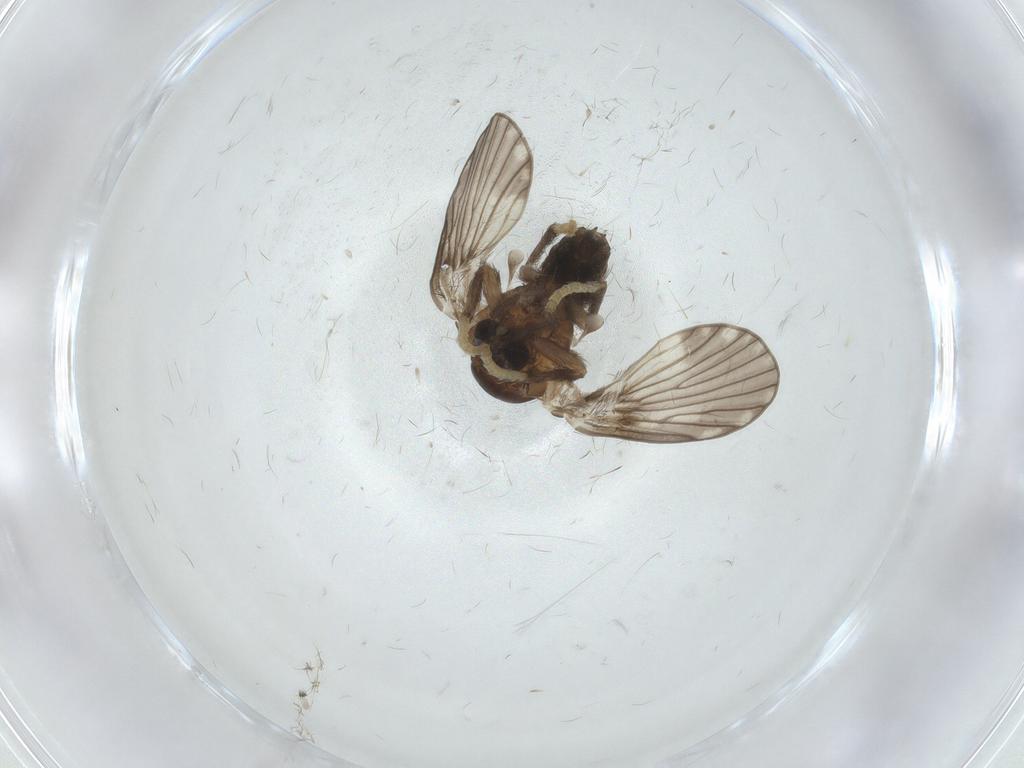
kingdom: Animalia
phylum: Arthropoda
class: Insecta
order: Diptera
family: Psychodidae
